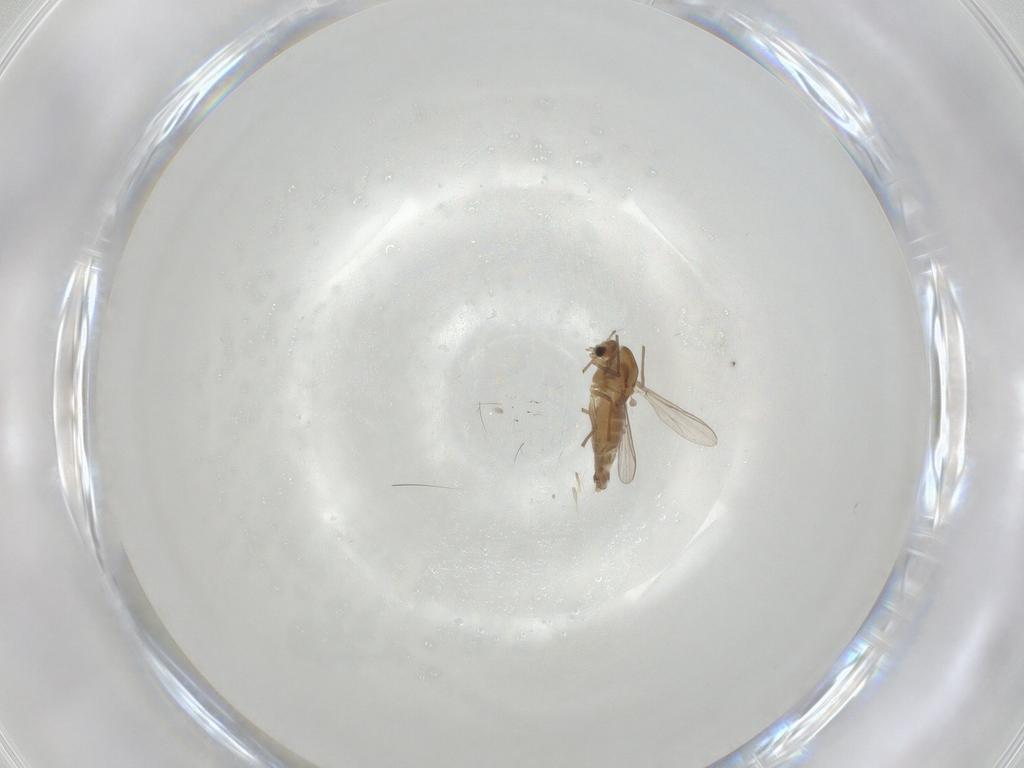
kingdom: Animalia
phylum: Arthropoda
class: Insecta
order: Diptera
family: Chironomidae
